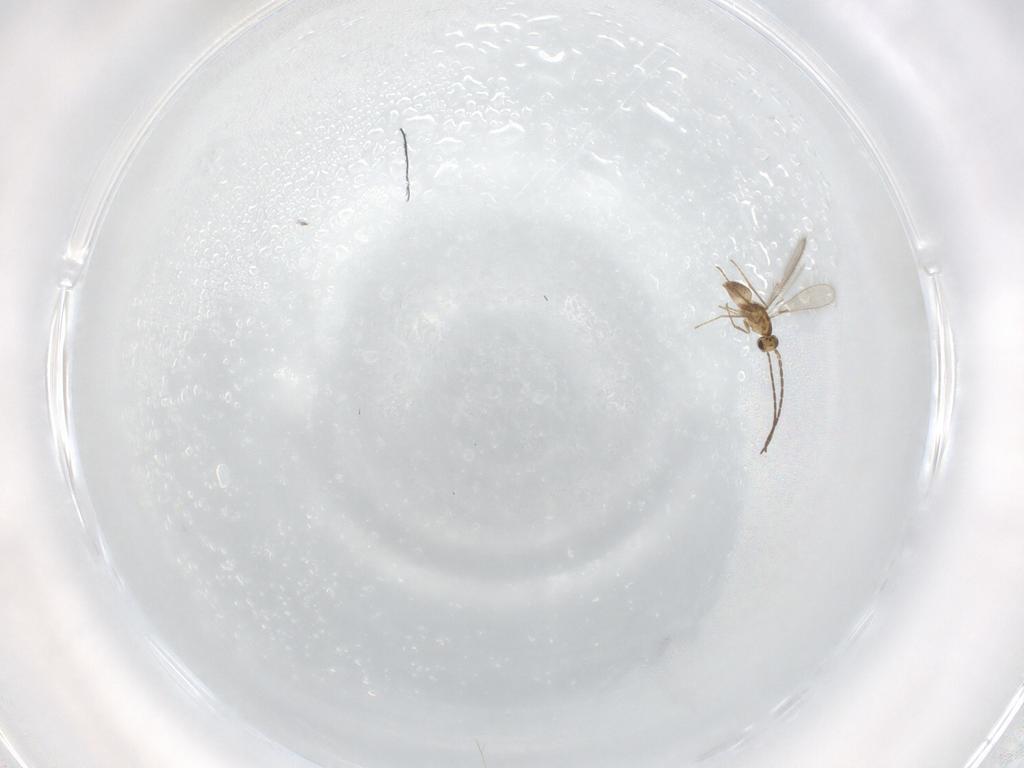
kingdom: Animalia
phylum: Arthropoda
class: Insecta
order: Hymenoptera
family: Mymaridae
